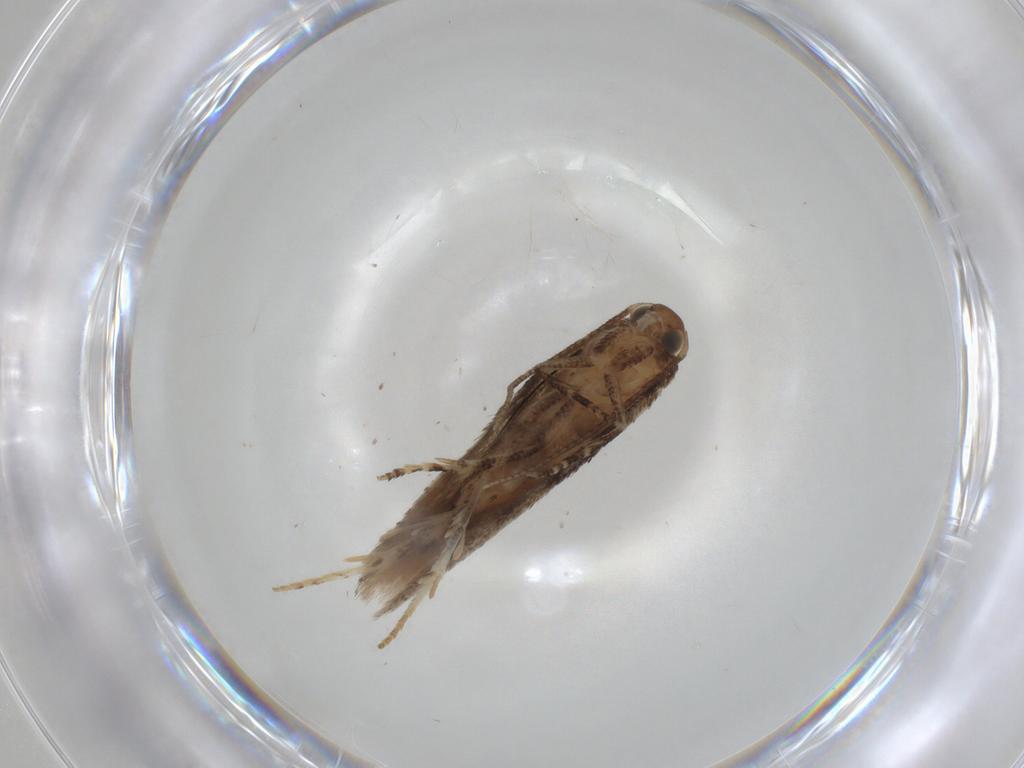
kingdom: Animalia
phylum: Arthropoda
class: Insecta
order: Lepidoptera
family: Gelechiidae
